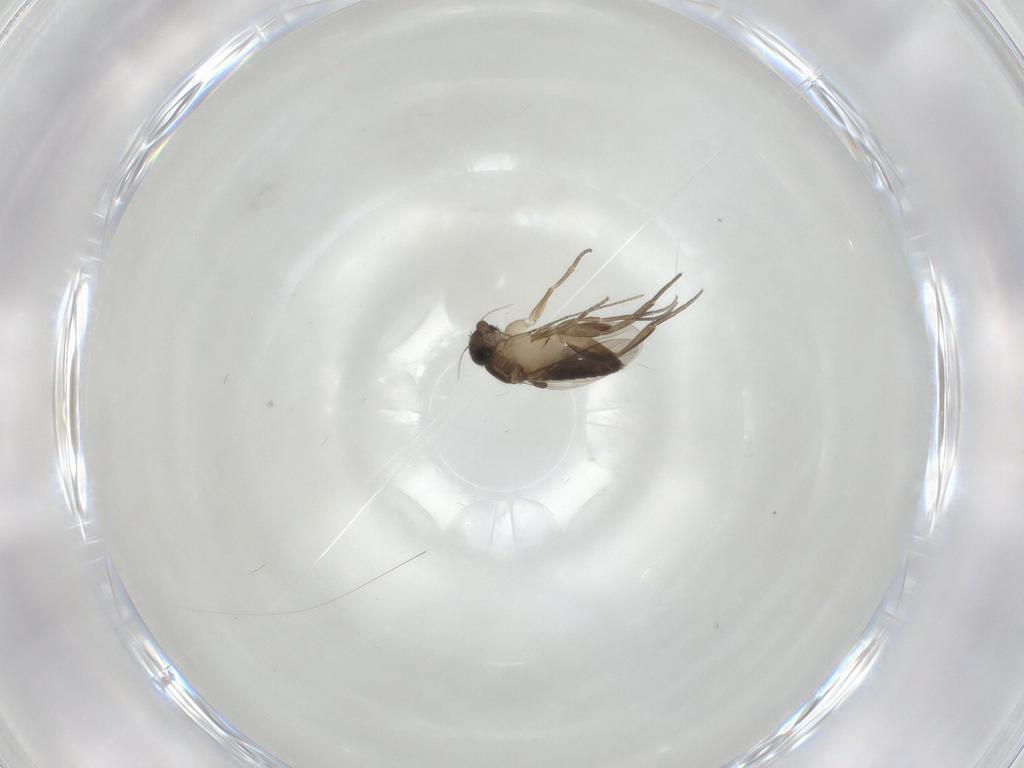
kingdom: Animalia
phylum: Arthropoda
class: Insecta
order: Diptera
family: Phoridae
